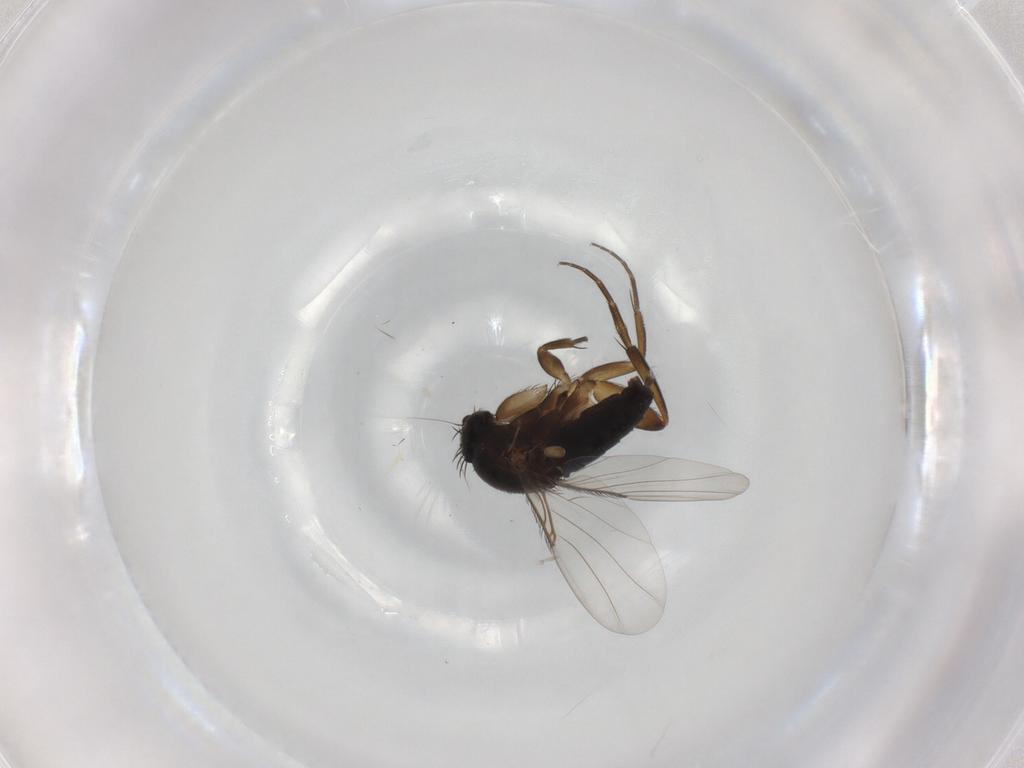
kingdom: Animalia
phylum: Arthropoda
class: Insecta
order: Diptera
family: Phoridae
